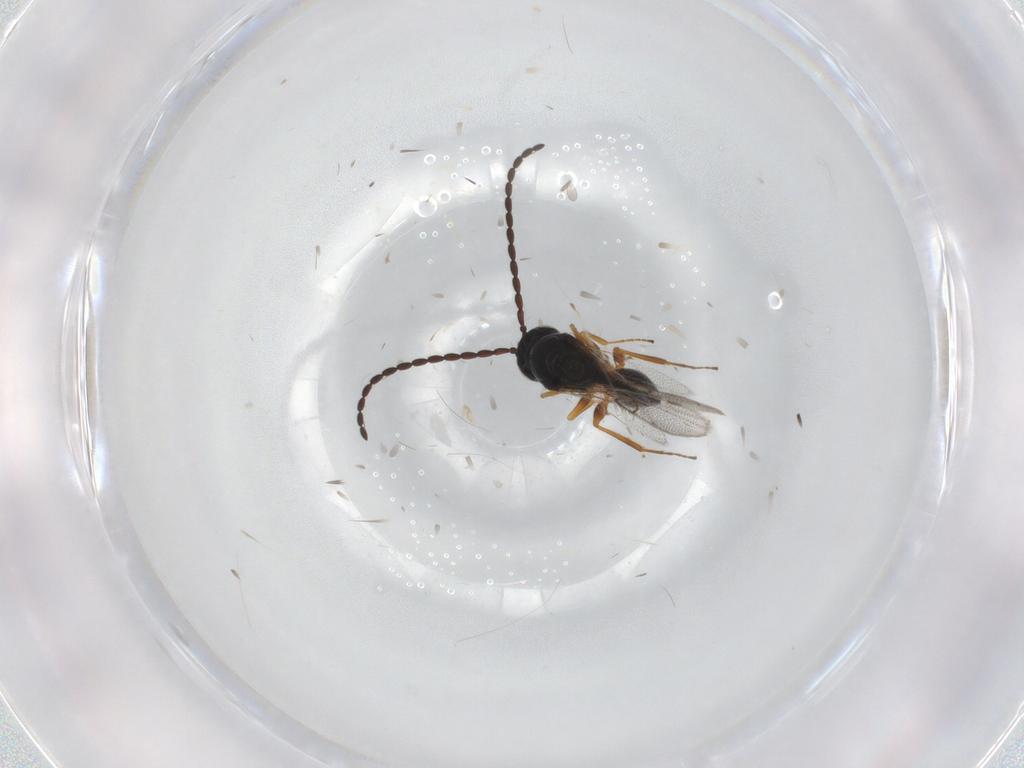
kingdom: Animalia
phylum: Arthropoda
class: Insecta
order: Hymenoptera
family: Figitidae
